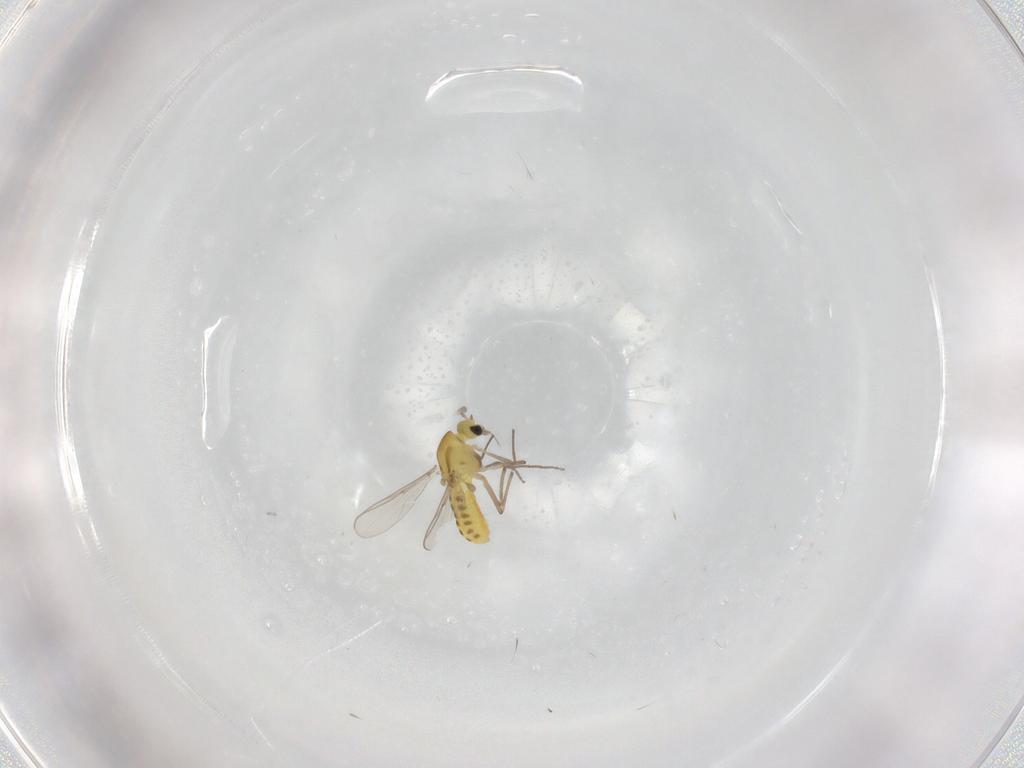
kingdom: Animalia
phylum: Arthropoda
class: Insecta
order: Diptera
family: Chironomidae
